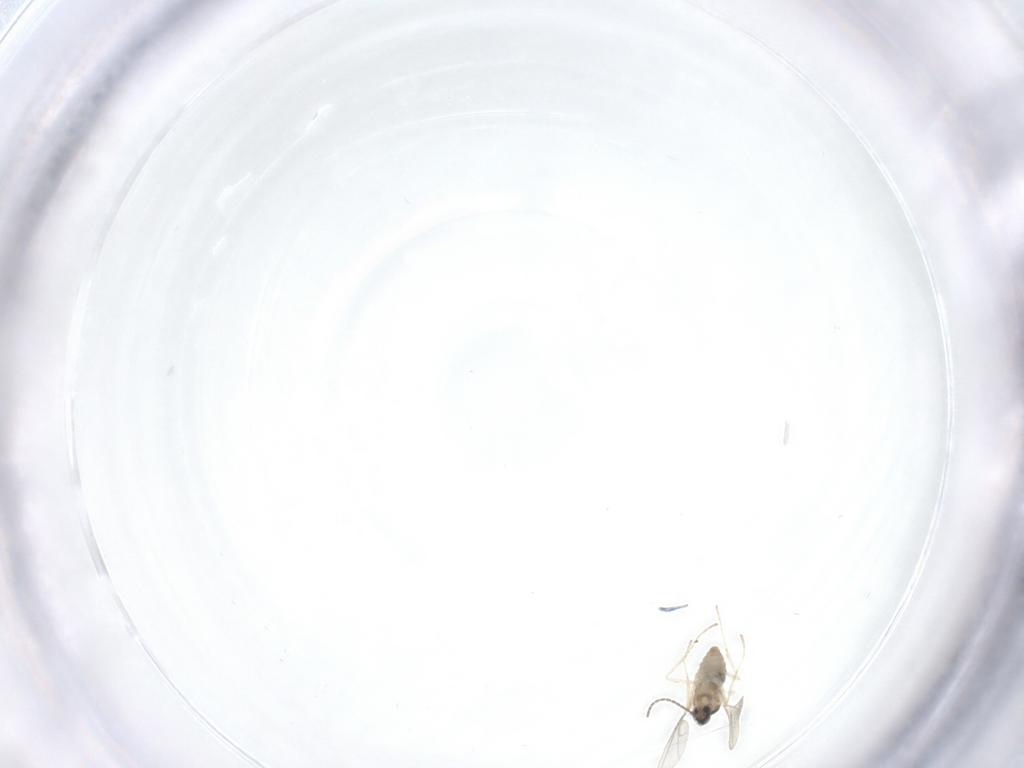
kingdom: Animalia
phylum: Arthropoda
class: Insecta
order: Diptera
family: Cecidomyiidae
